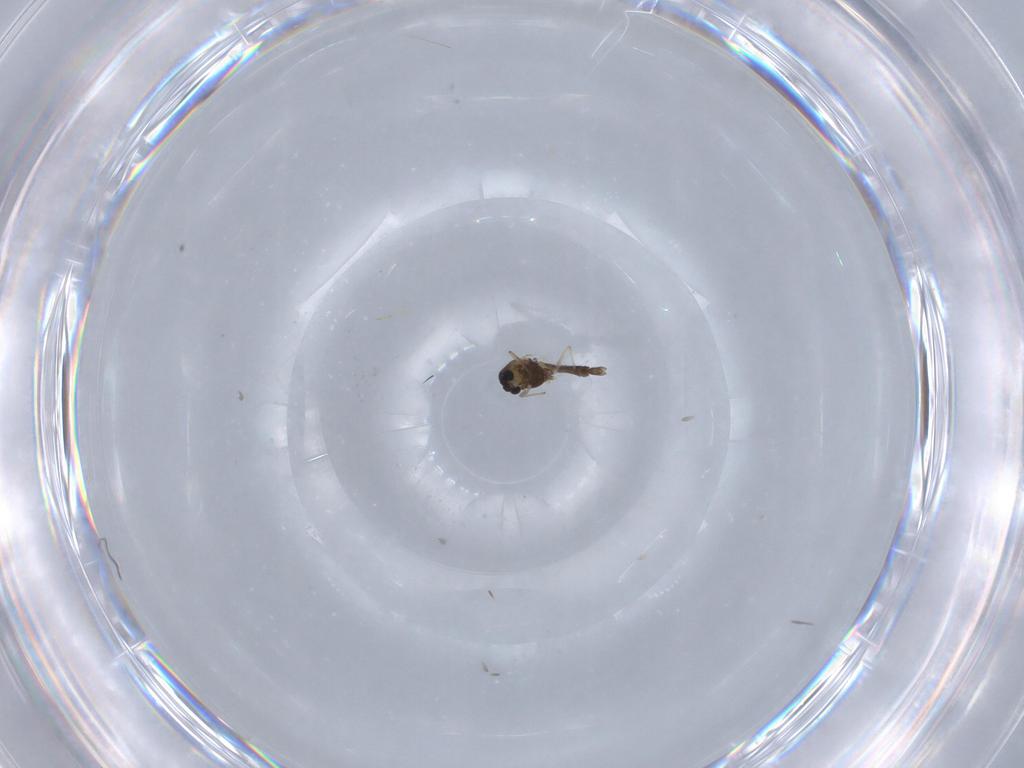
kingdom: Animalia
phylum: Arthropoda
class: Insecta
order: Diptera
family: Chironomidae
